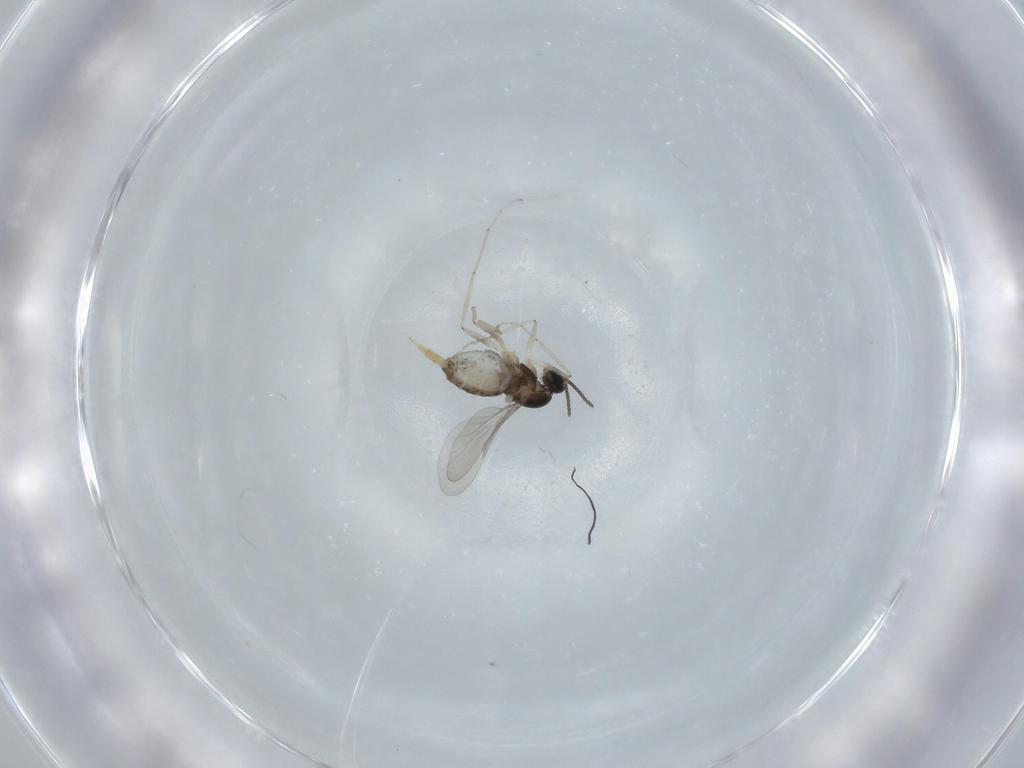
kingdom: Animalia
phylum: Arthropoda
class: Insecta
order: Diptera
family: Cecidomyiidae
